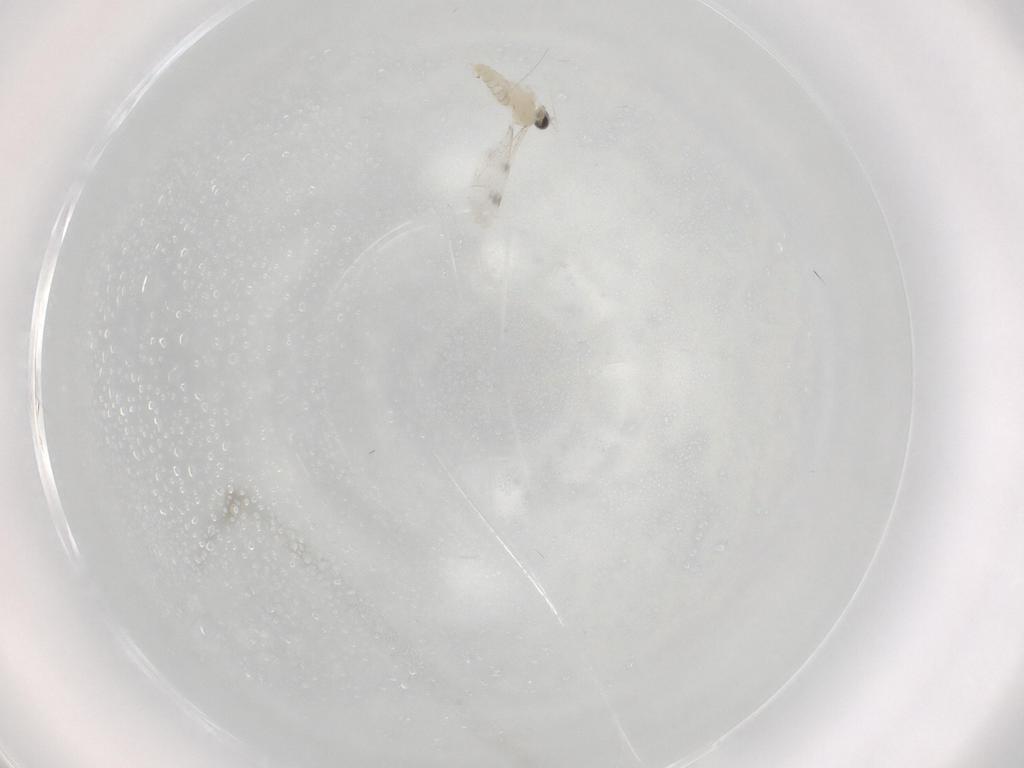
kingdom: Animalia
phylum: Arthropoda
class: Insecta
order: Diptera
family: Cecidomyiidae
